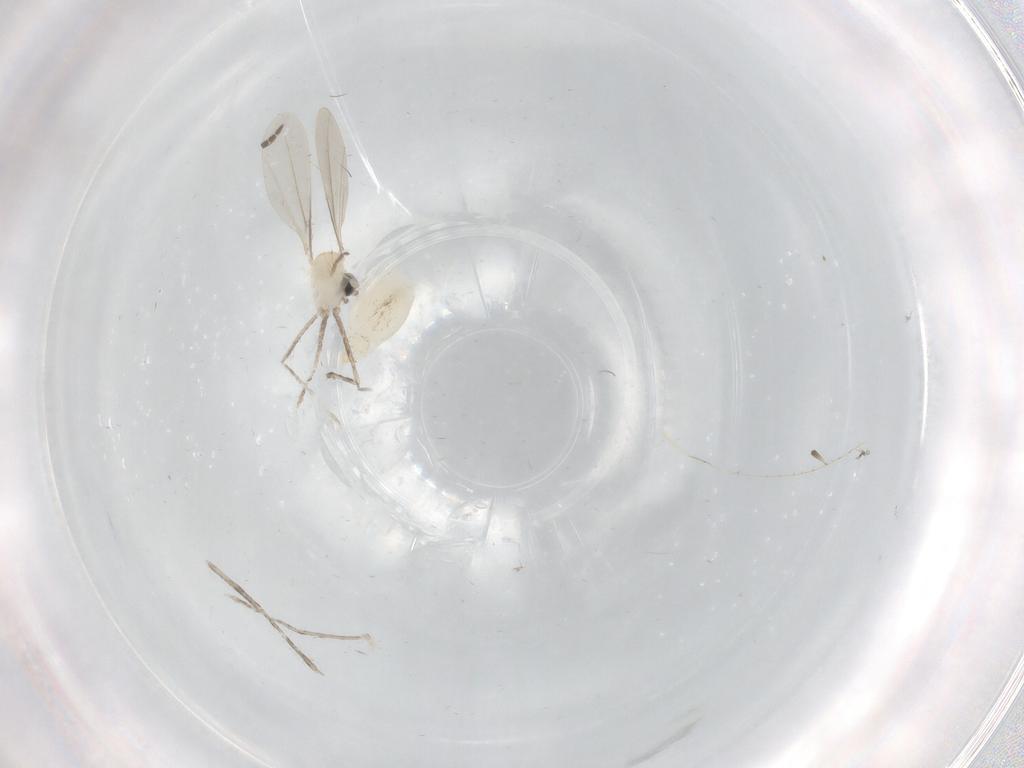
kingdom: Animalia
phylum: Arthropoda
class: Insecta
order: Diptera
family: Cecidomyiidae
